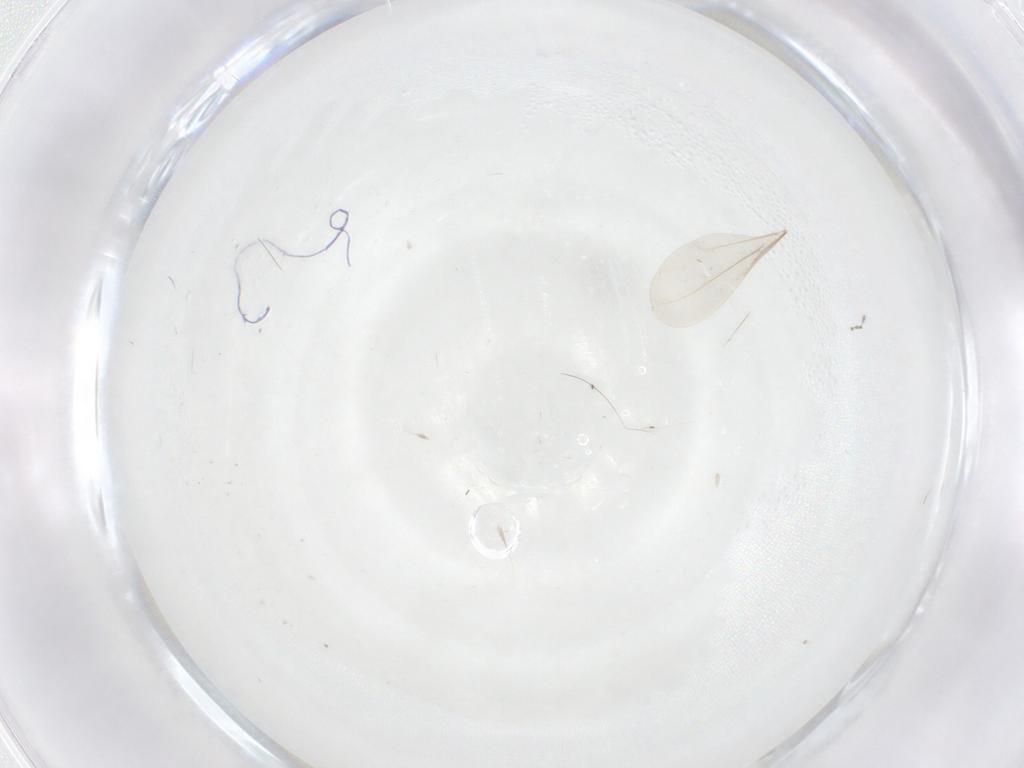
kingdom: Animalia
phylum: Arthropoda
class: Insecta
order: Diptera
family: Cecidomyiidae
